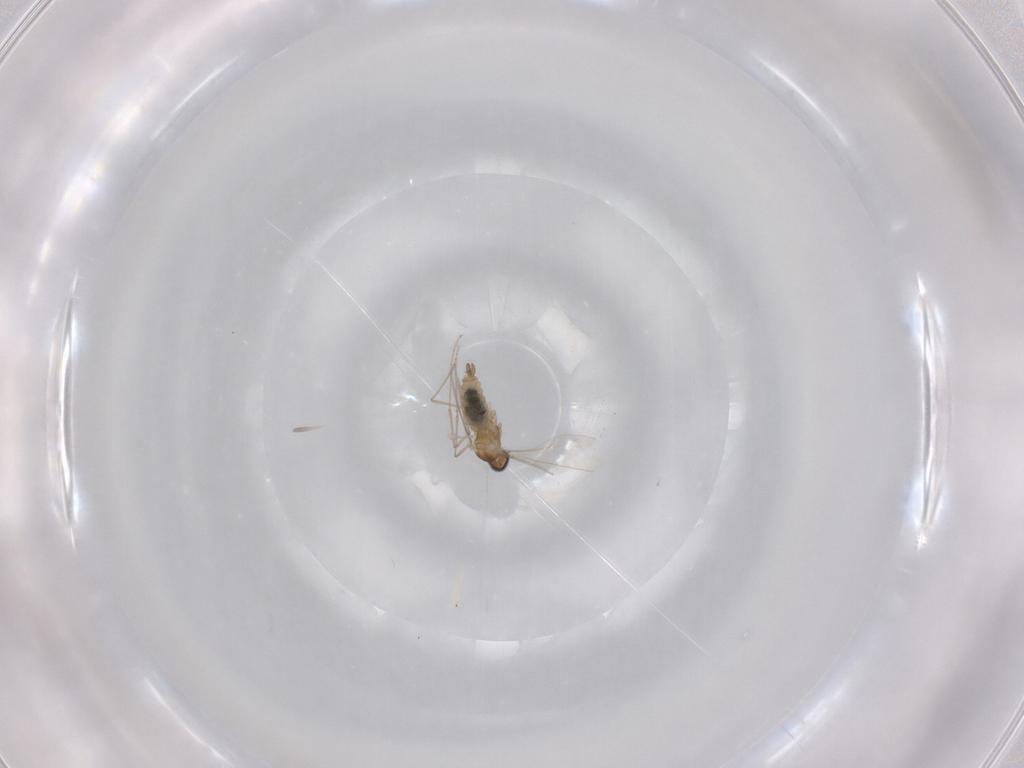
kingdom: Animalia
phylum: Arthropoda
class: Insecta
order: Diptera
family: Cecidomyiidae
